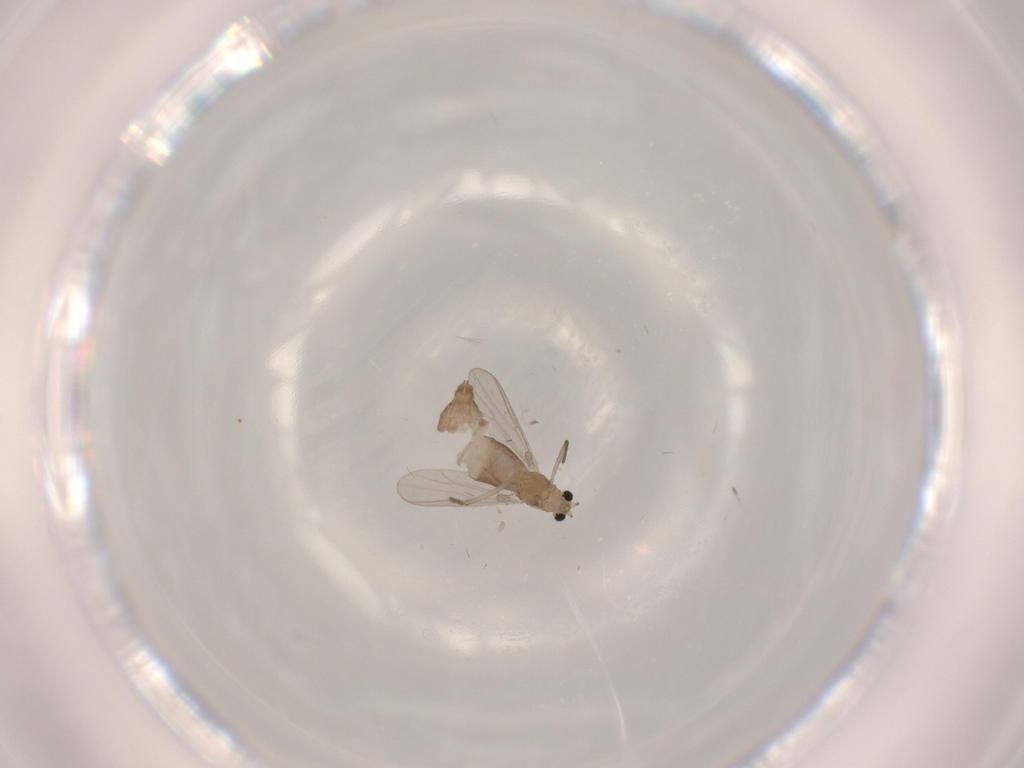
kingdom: Animalia
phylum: Arthropoda
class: Insecta
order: Diptera
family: Chironomidae
